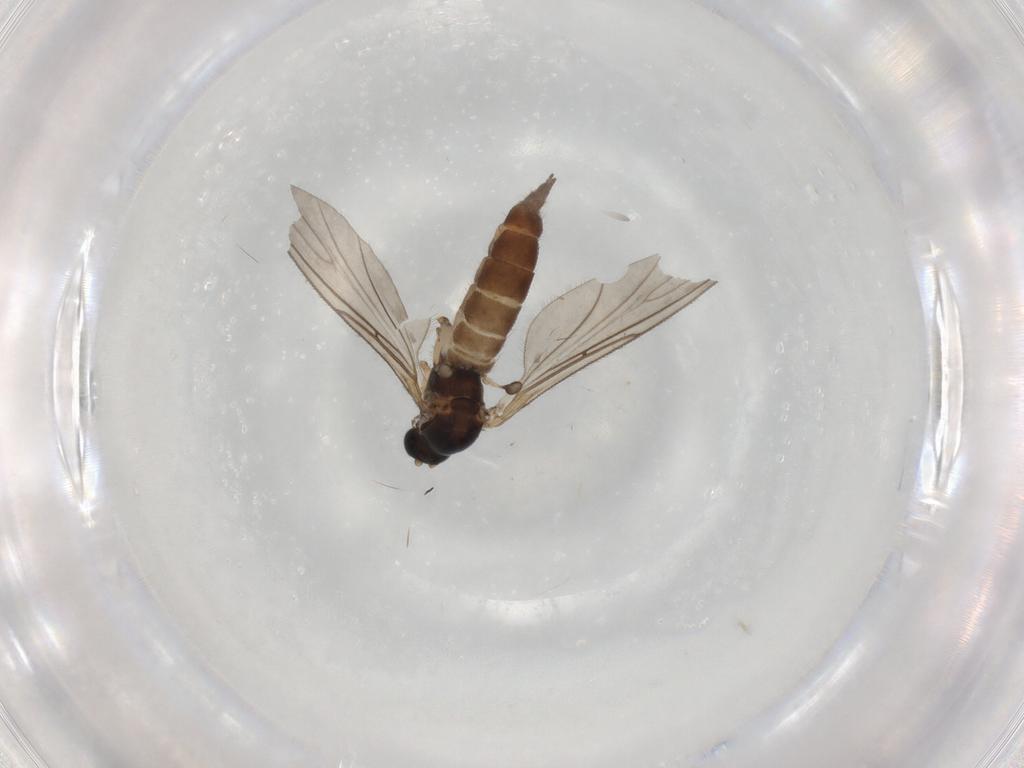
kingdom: Animalia
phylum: Arthropoda
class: Insecta
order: Diptera
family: Sciaridae
